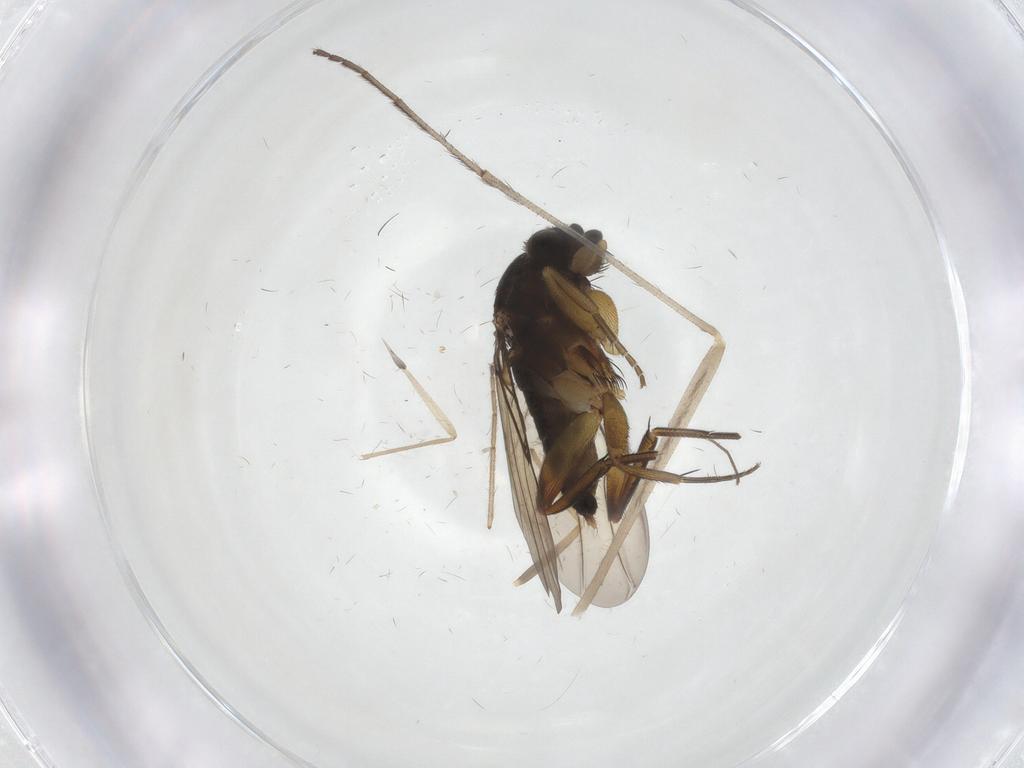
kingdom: Animalia
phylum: Arthropoda
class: Insecta
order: Diptera
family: Phoridae
